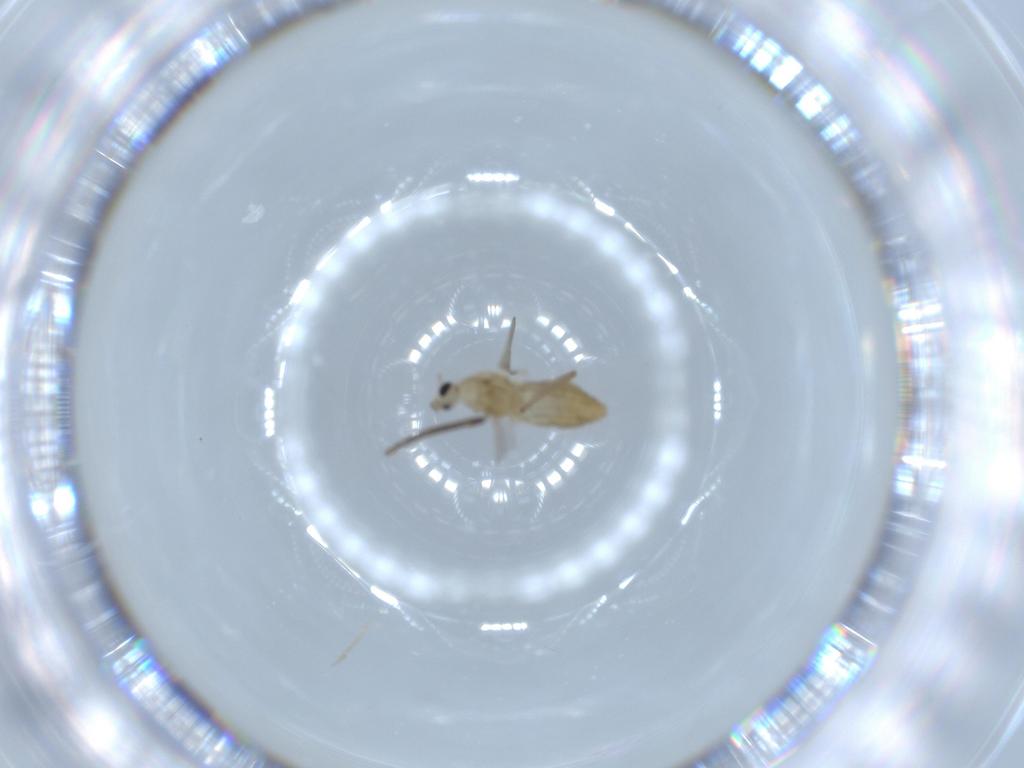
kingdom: Animalia
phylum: Arthropoda
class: Insecta
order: Diptera
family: Chironomidae
